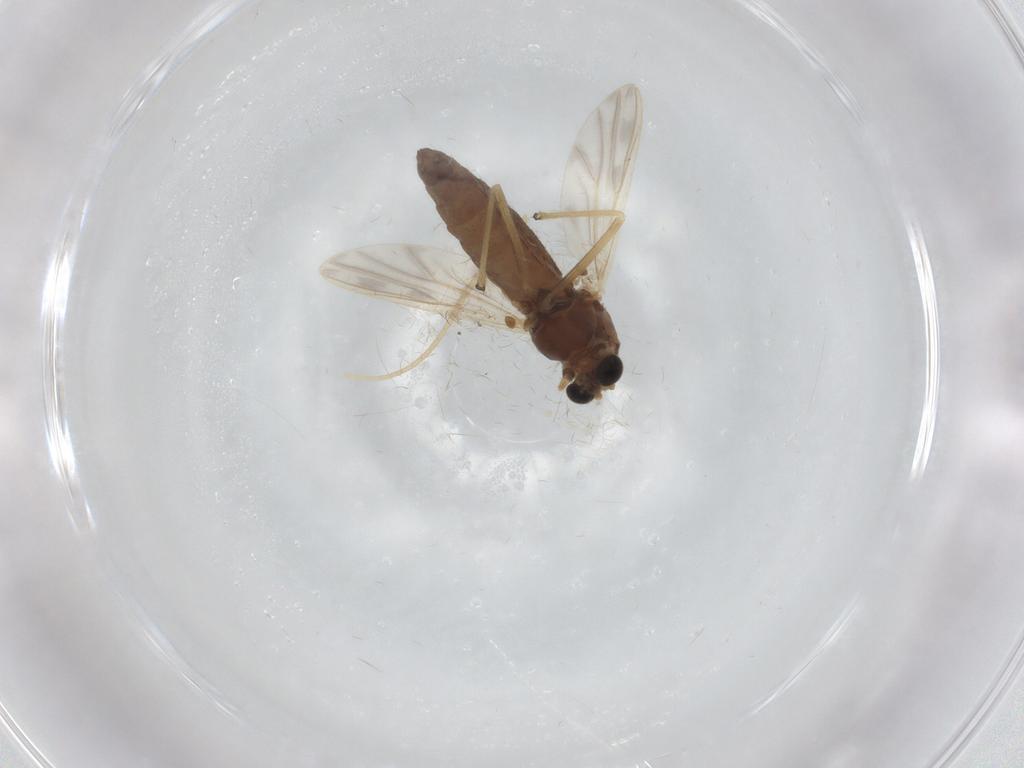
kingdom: Animalia
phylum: Arthropoda
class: Insecta
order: Diptera
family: Chironomidae
